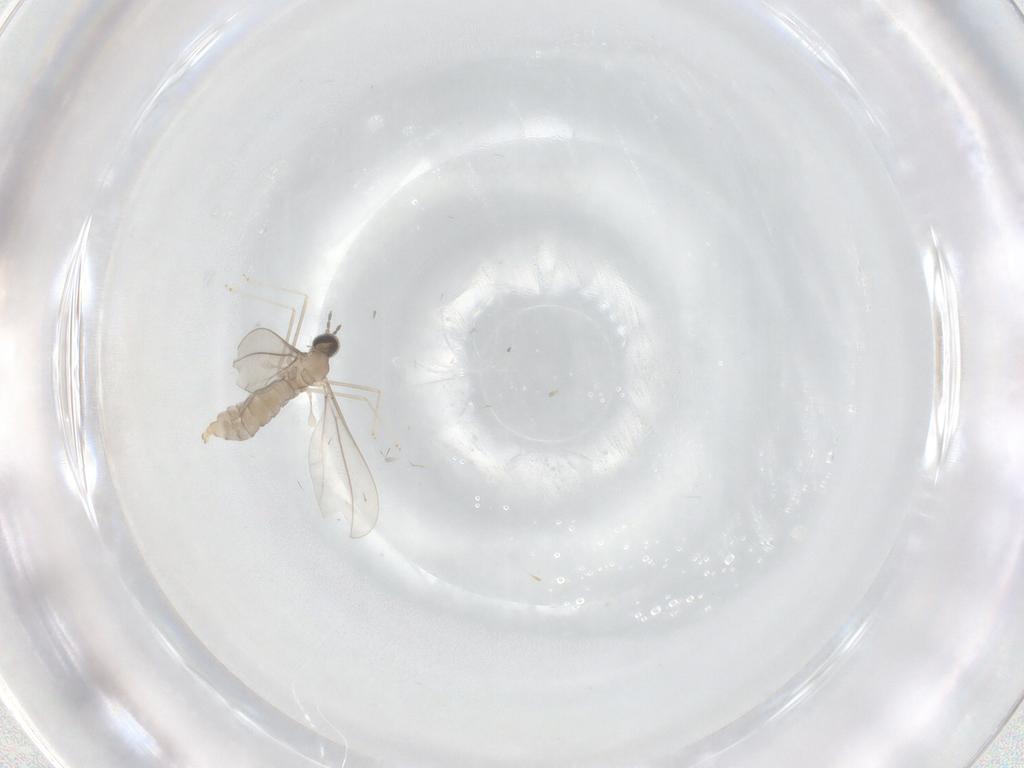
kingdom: Animalia
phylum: Arthropoda
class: Insecta
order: Diptera
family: Cecidomyiidae
